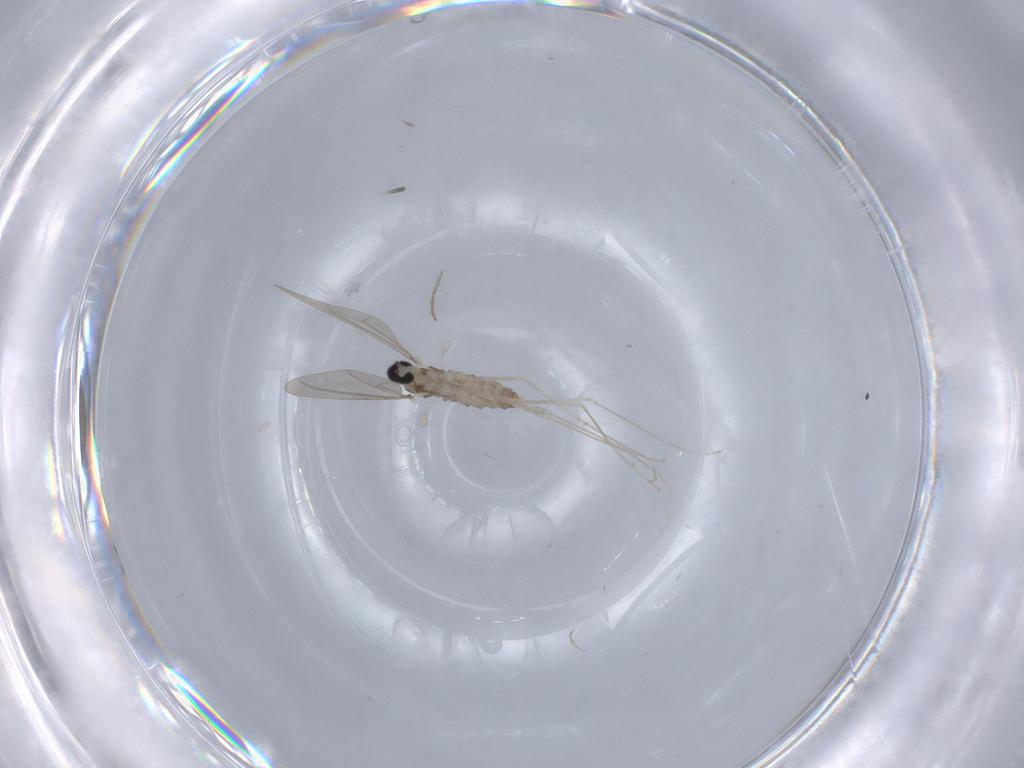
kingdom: Animalia
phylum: Arthropoda
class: Insecta
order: Diptera
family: Cecidomyiidae
